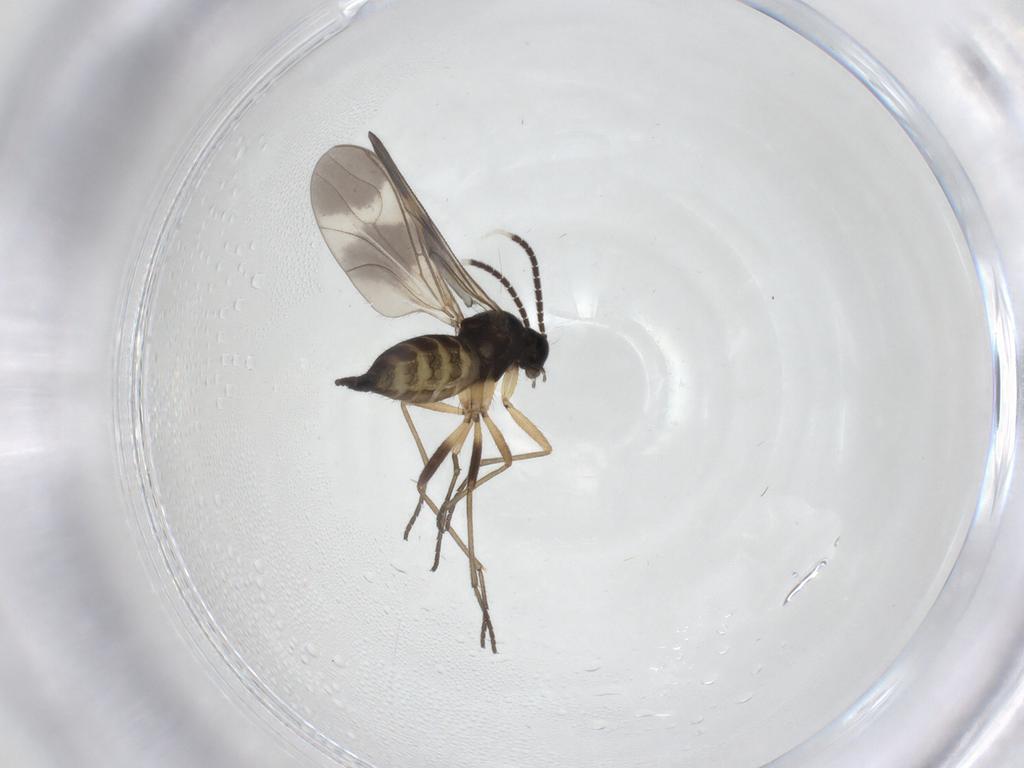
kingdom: Animalia
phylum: Arthropoda
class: Insecta
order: Diptera
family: Sciaridae
